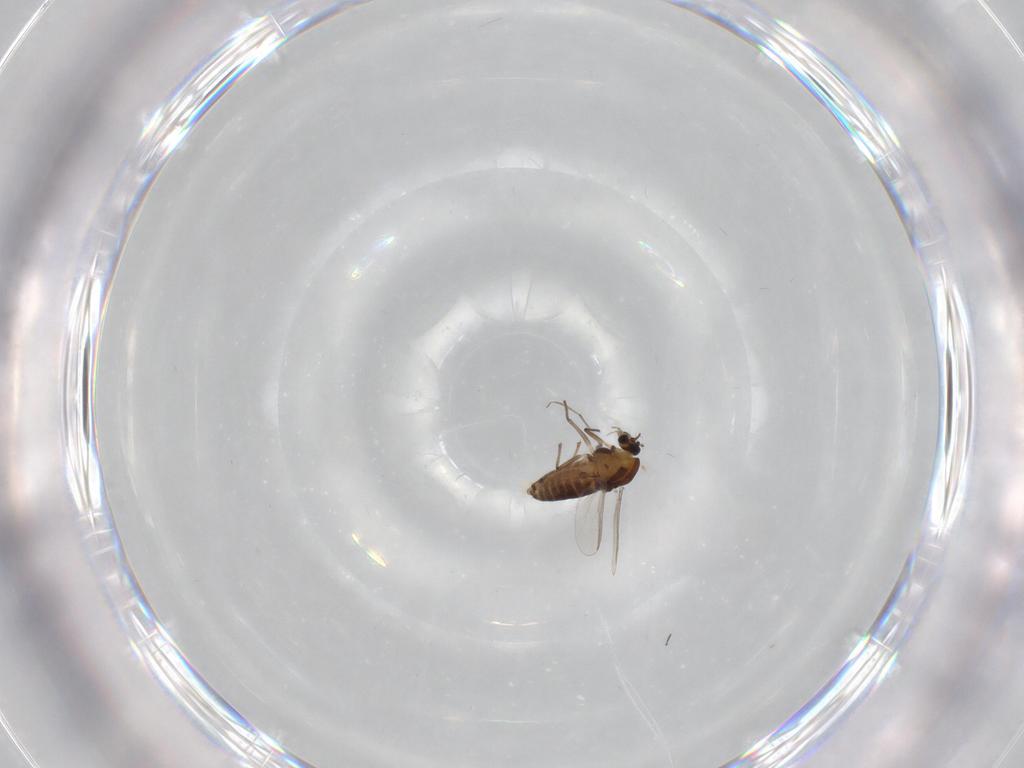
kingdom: Animalia
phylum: Arthropoda
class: Insecta
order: Diptera
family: Chironomidae
